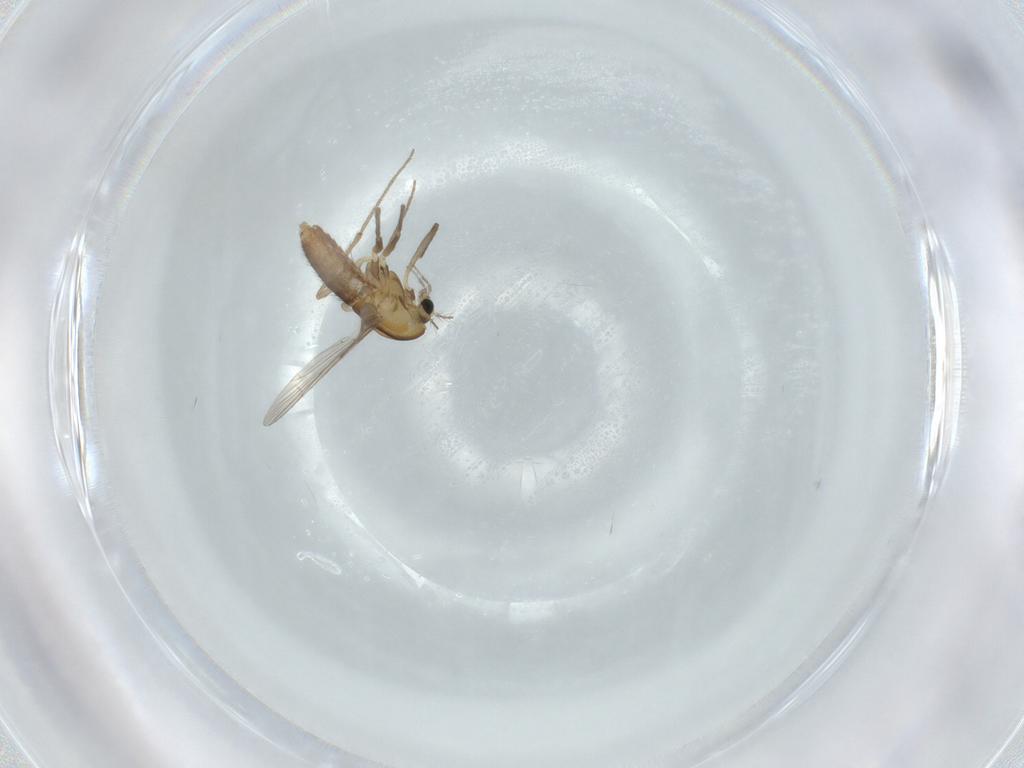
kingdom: Animalia
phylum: Arthropoda
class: Insecta
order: Diptera
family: Chironomidae
